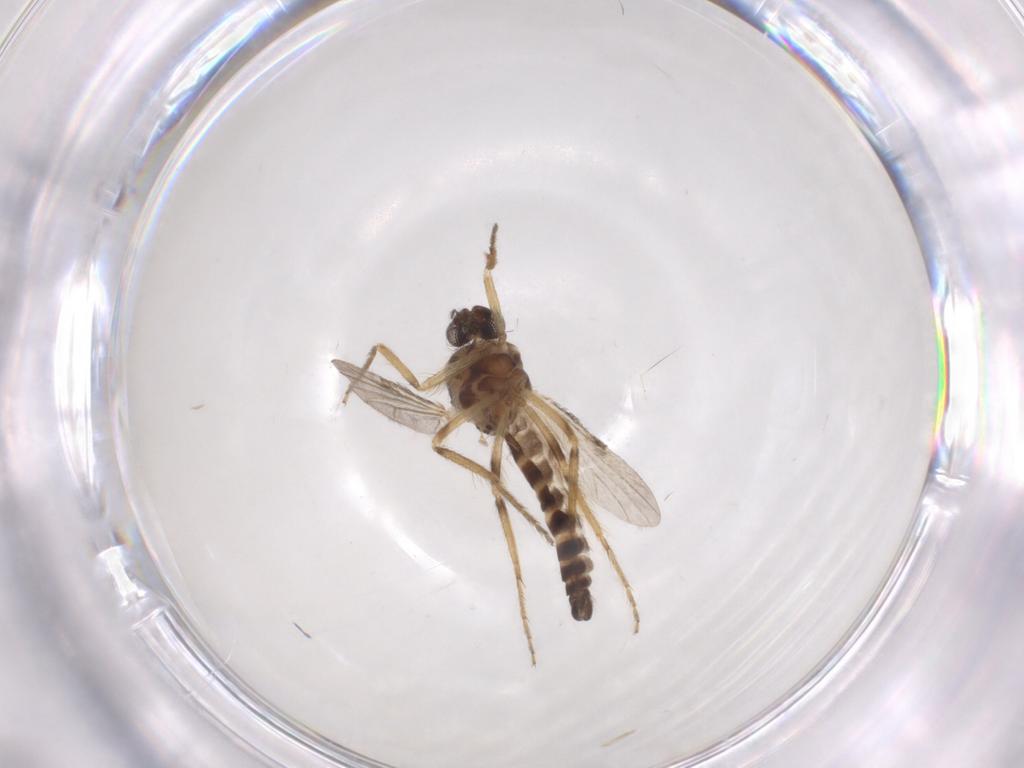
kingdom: Animalia
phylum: Arthropoda
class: Insecta
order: Diptera
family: Ceratopogonidae
